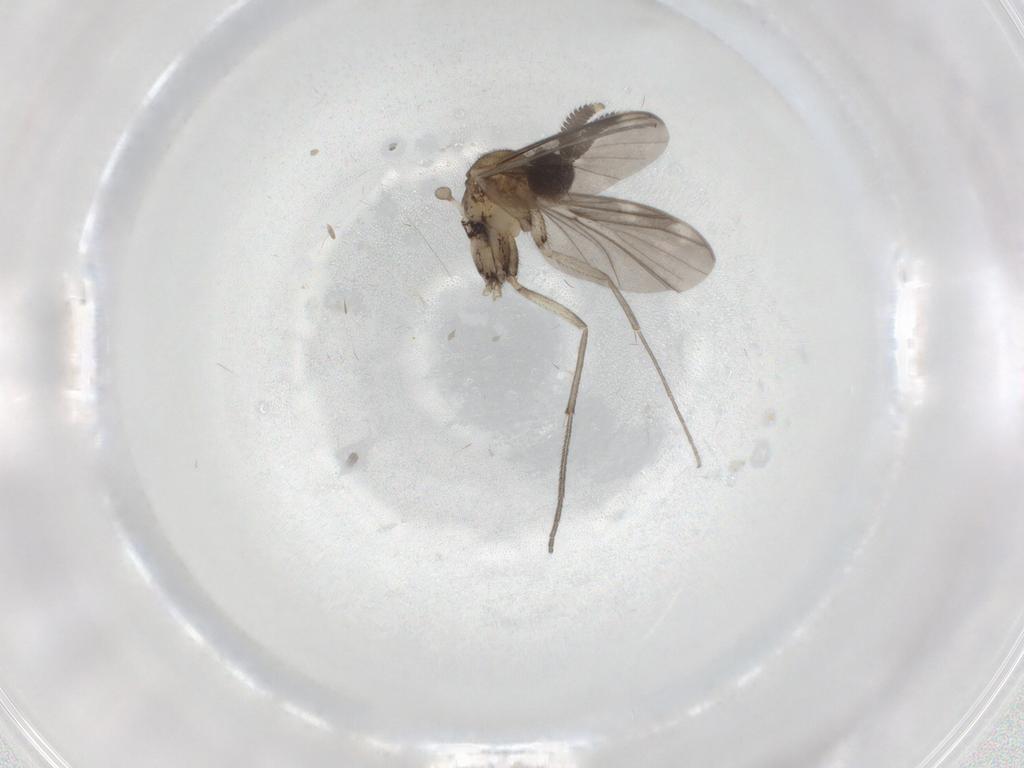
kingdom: Animalia
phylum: Arthropoda
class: Insecta
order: Diptera
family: Keroplatidae
